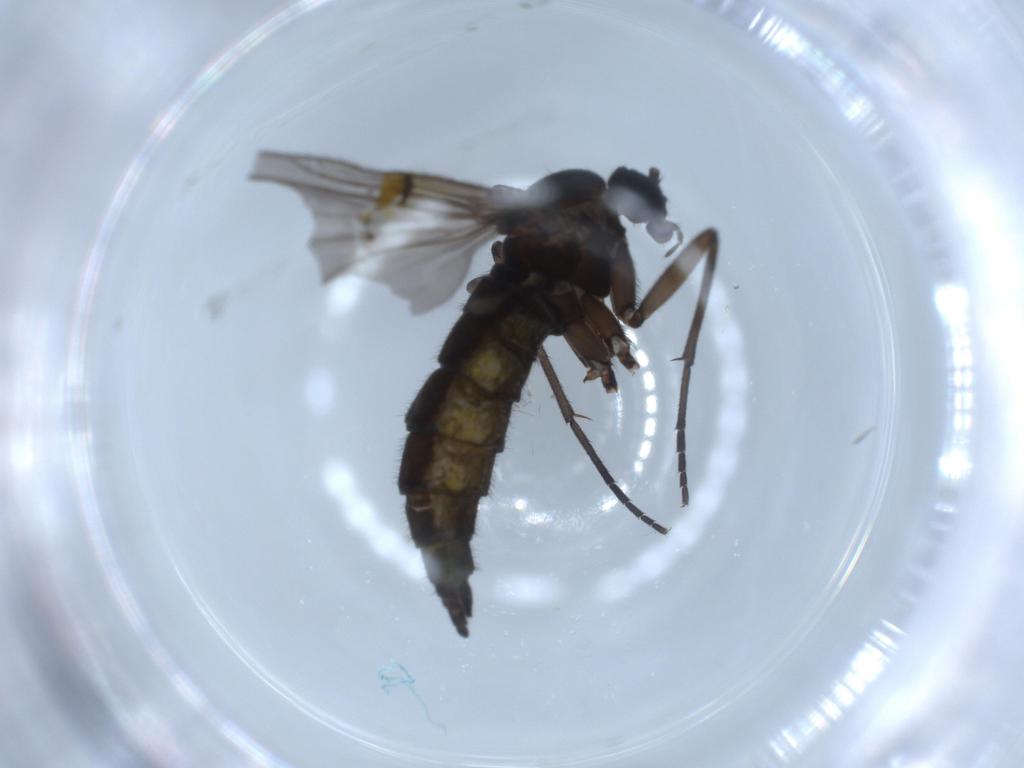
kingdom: Animalia
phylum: Arthropoda
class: Insecta
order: Diptera
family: Sciaridae
